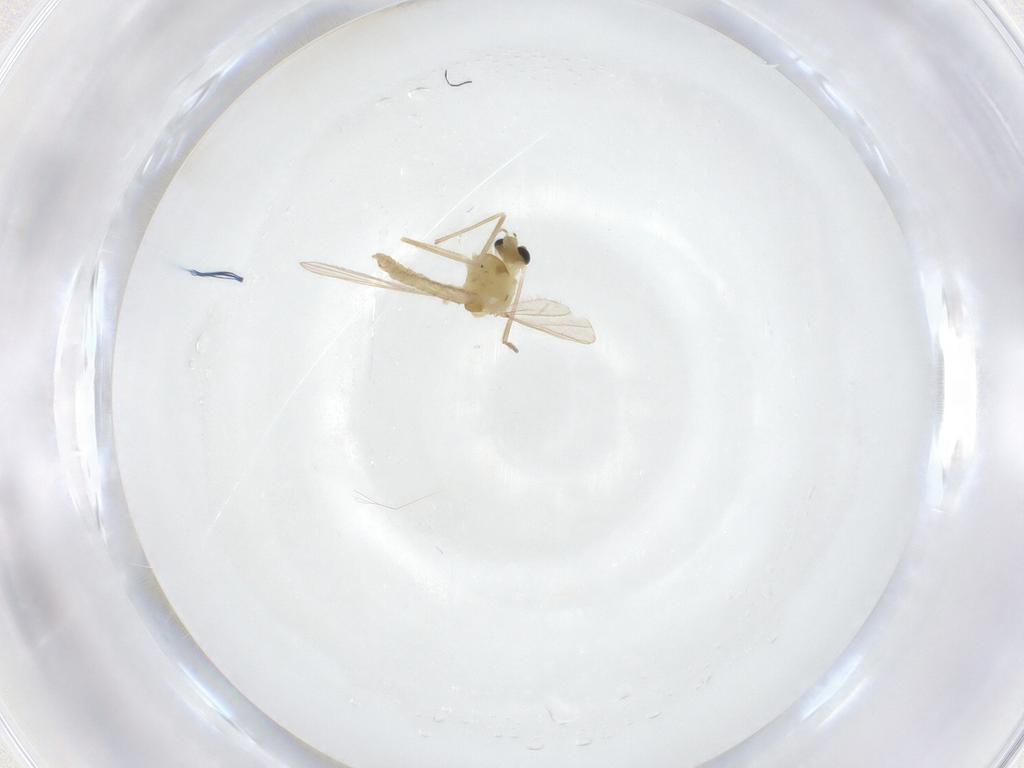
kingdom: Animalia
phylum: Arthropoda
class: Insecta
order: Diptera
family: Chironomidae
